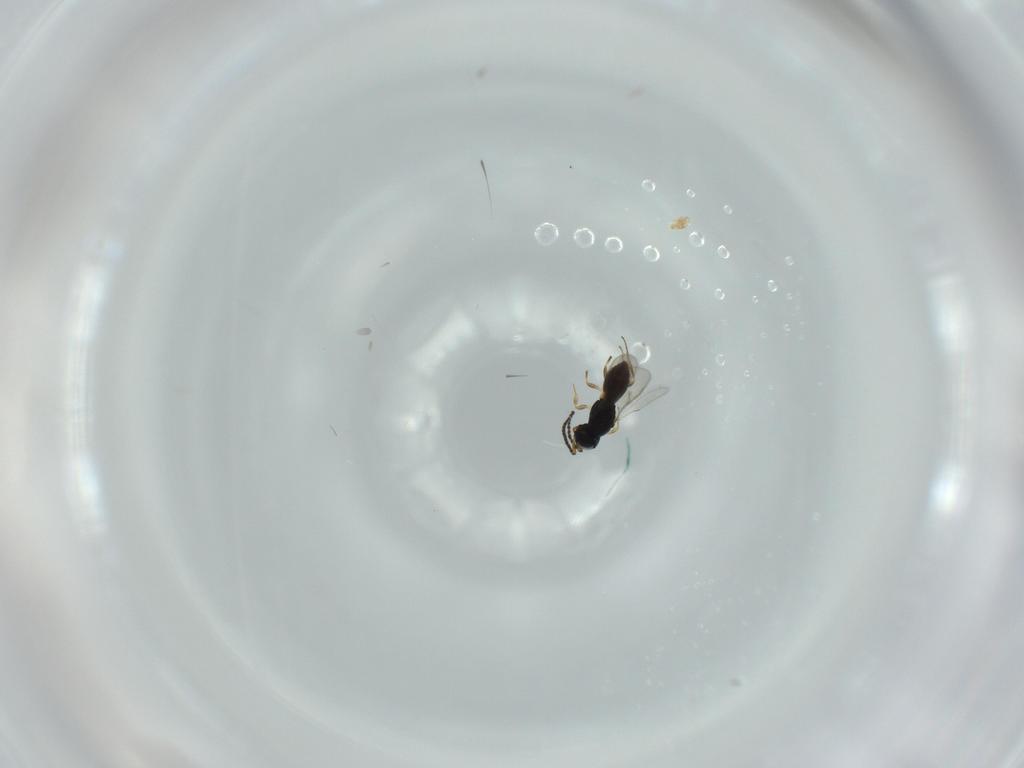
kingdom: Animalia
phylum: Arthropoda
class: Insecta
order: Hymenoptera
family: Scelionidae
